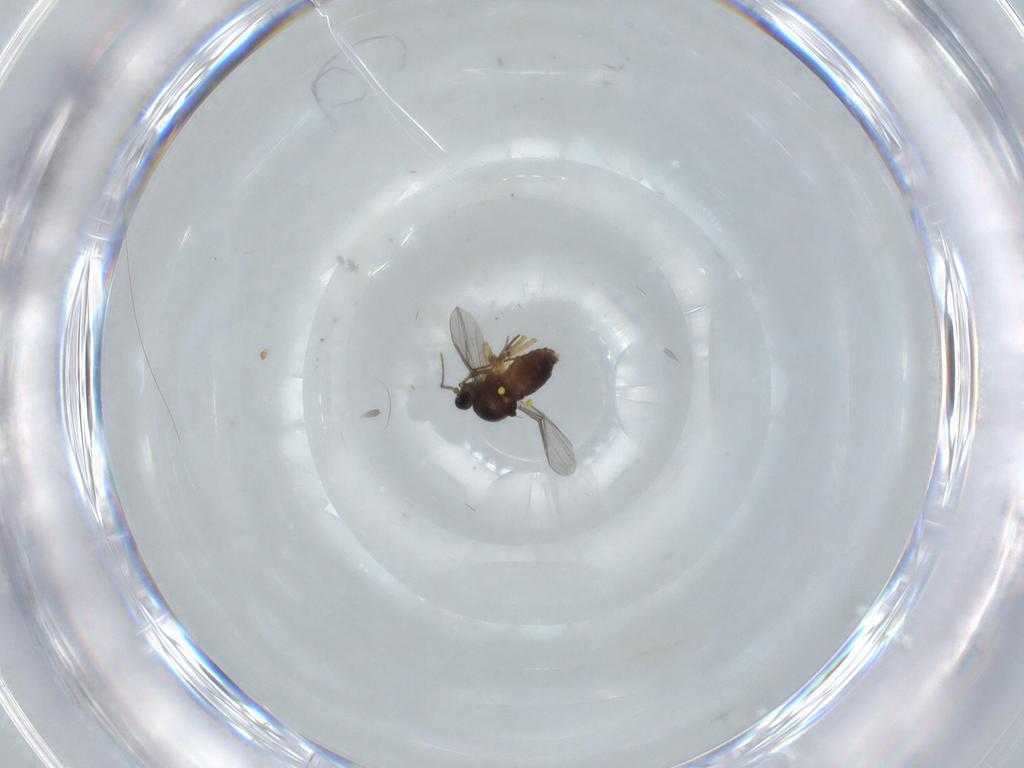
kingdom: Animalia
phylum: Arthropoda
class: Insecta
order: Diptera
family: Ceratopogonidae
